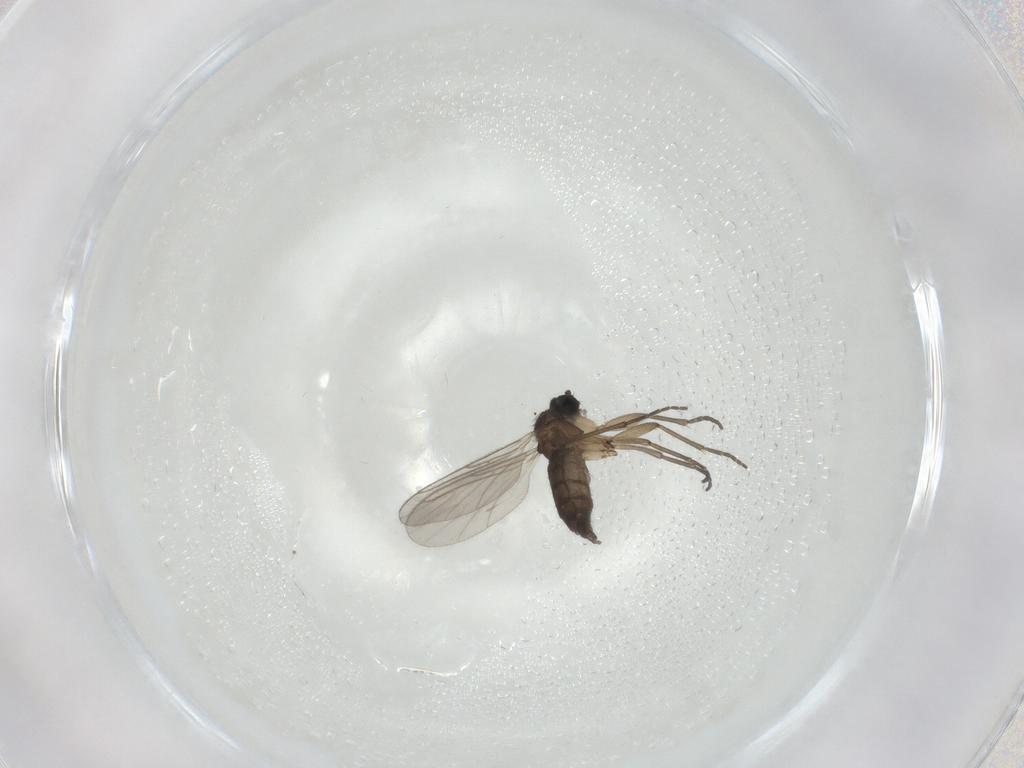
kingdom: Animalia
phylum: Arthropoda
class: Insecta
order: Diptera
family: Sciaridae
